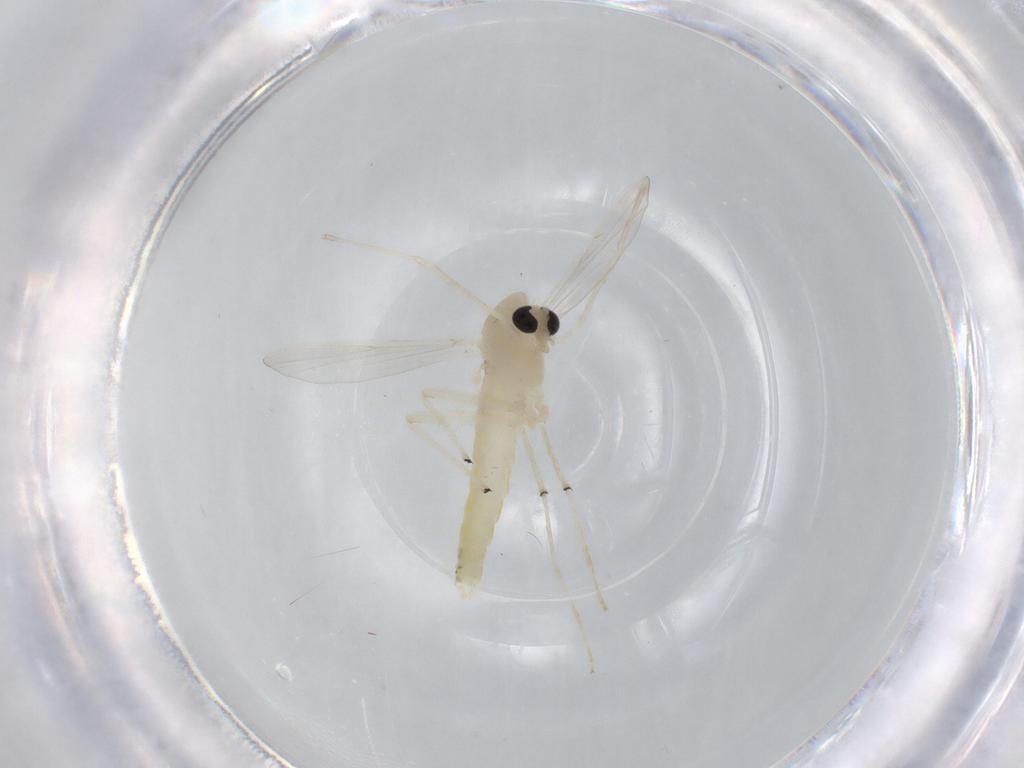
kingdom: Animalia
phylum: Arthropoda
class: Insecta
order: Diptera
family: Chironomidae
